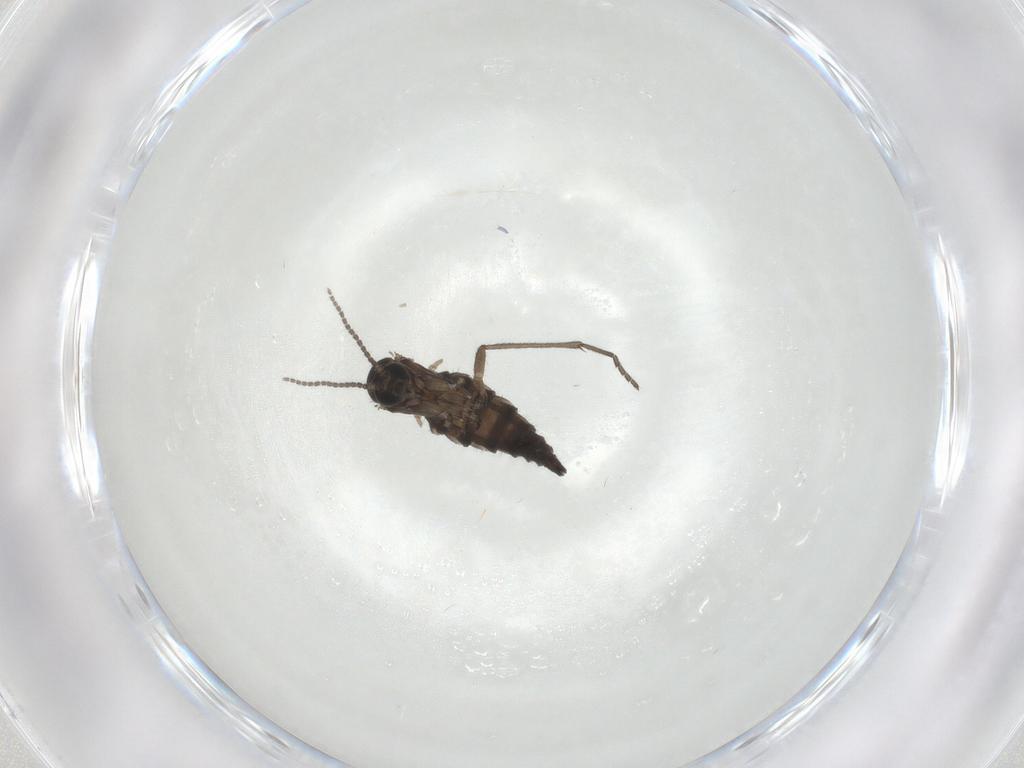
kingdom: Animalia
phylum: Arthropoda
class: Insecta
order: Diptera
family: Sciaridae
